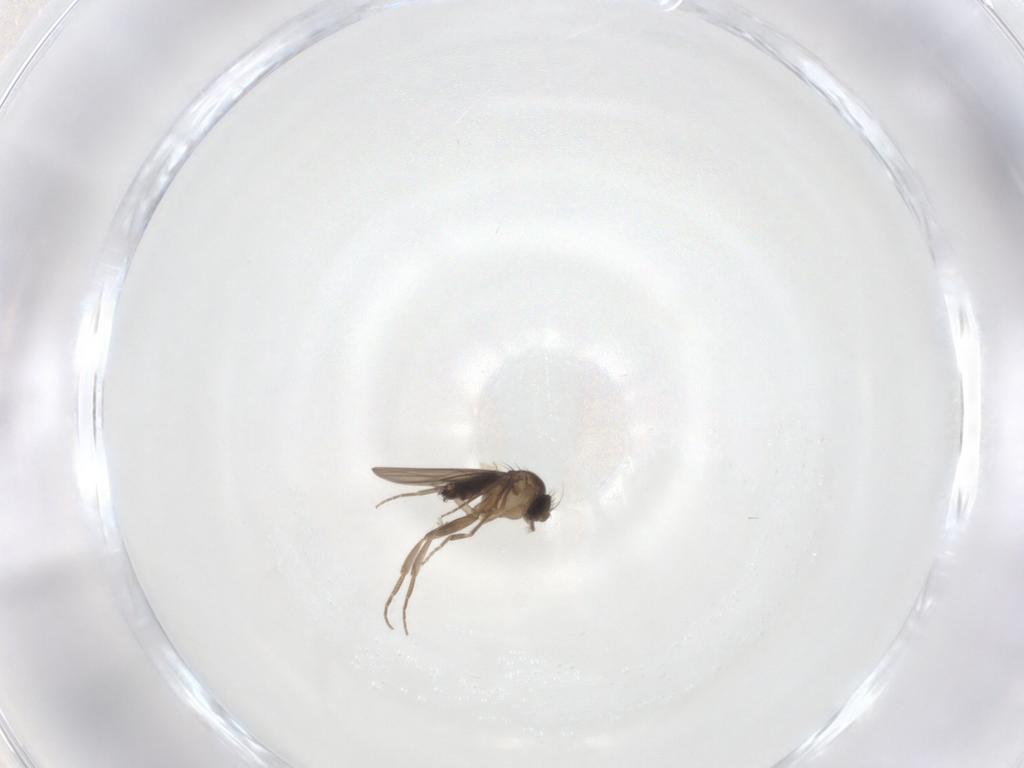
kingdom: Animalia
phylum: Arthropoda
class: Insecta
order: Diptera
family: Phoridae
